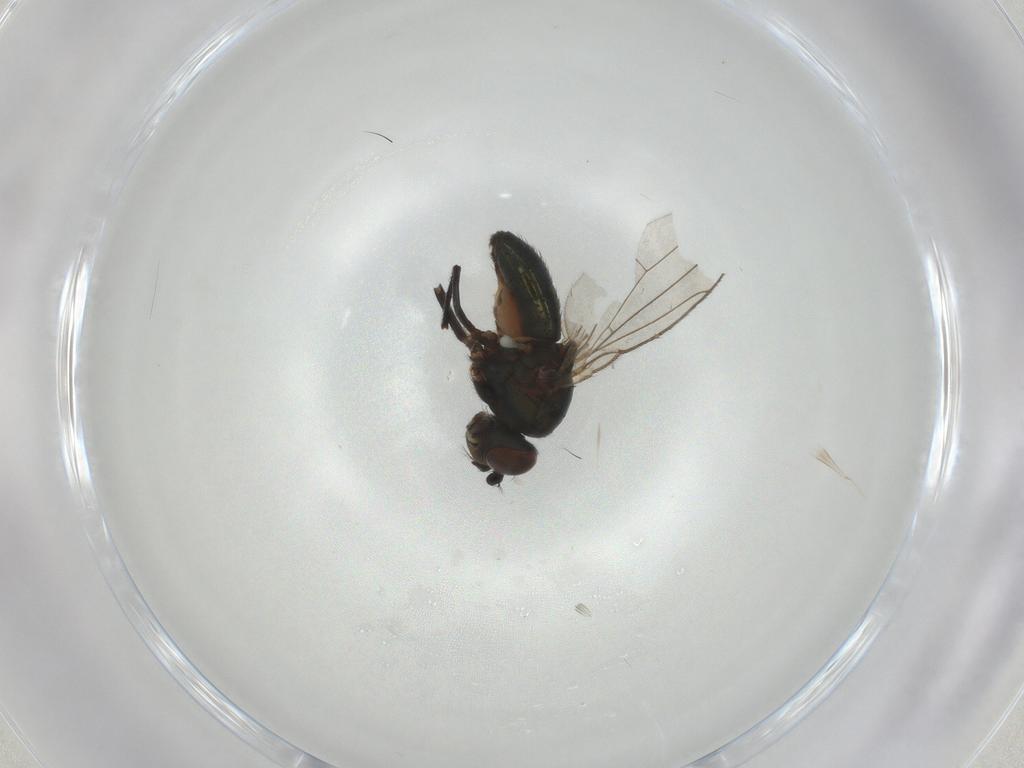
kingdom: Animalia
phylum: Arthropoda
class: Insecta
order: Diptera
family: Ephydridae
